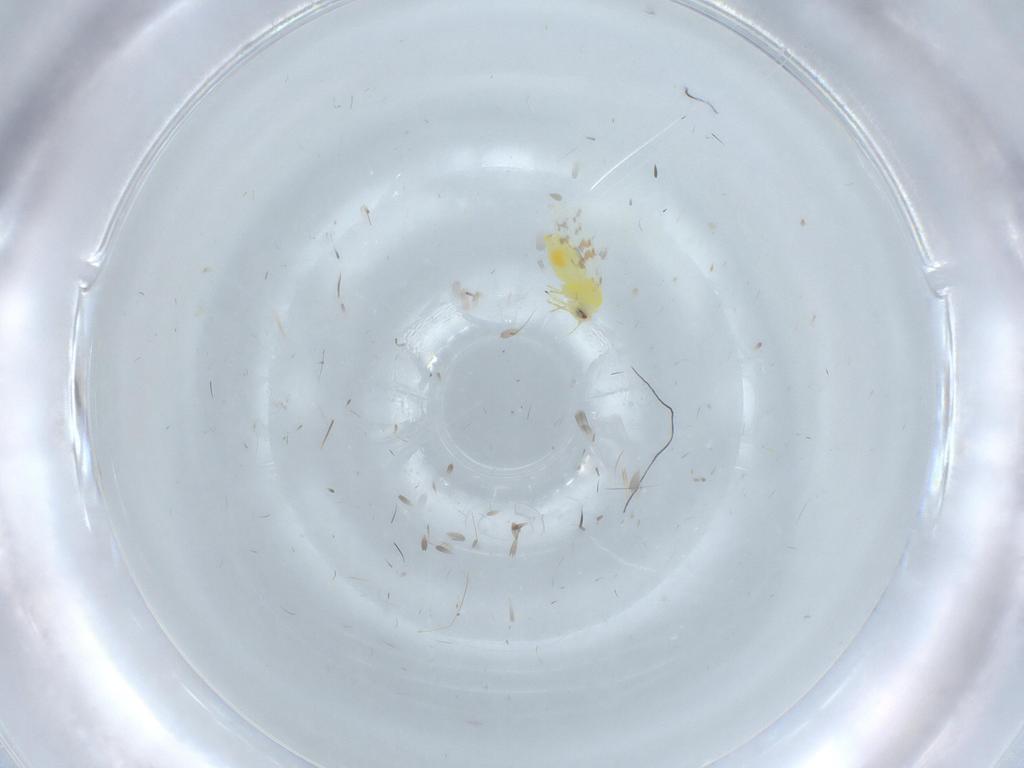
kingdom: Animalia
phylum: Arthropoda
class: Insecta
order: Hemiptera
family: Aleyrodidae
